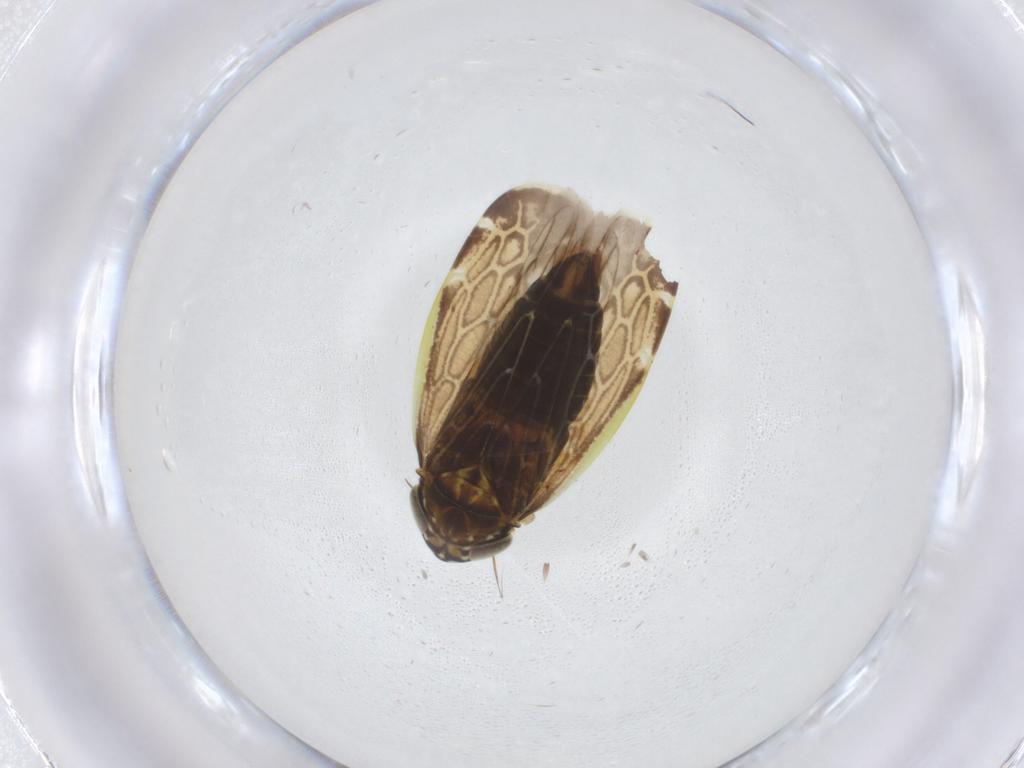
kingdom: Animalia
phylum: Arthropoda
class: Insecta
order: Hemiptera
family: Cicadellidae
